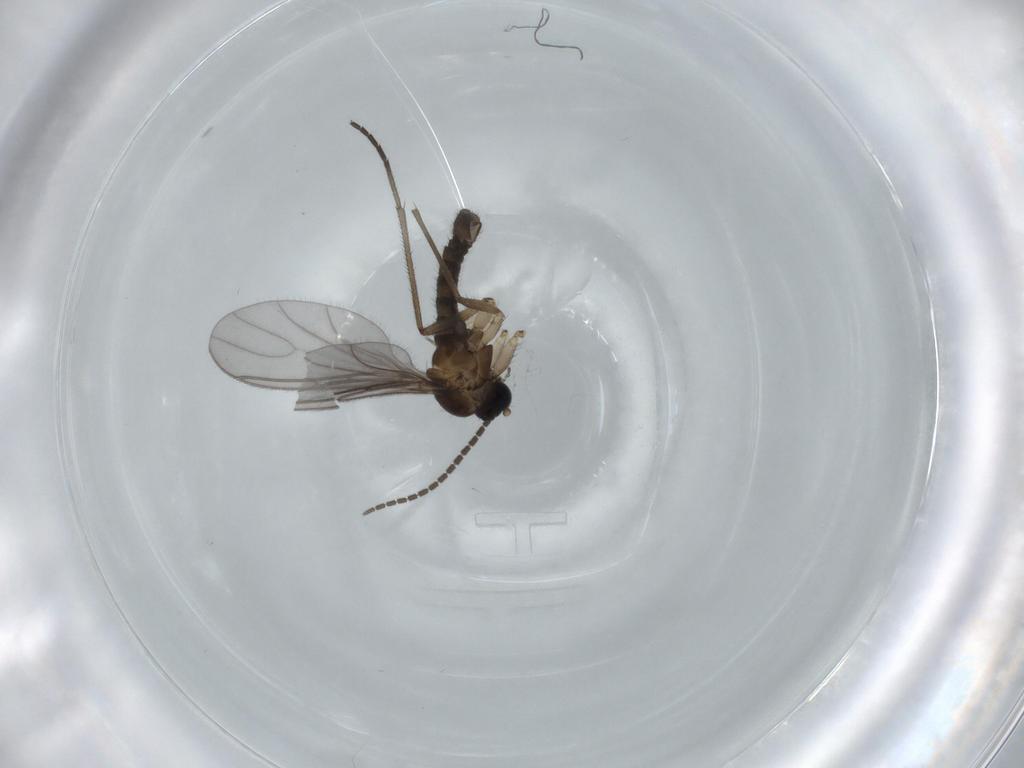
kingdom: Animalia
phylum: Arthropoda
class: Insecta
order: Diptera
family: Sciaridae
